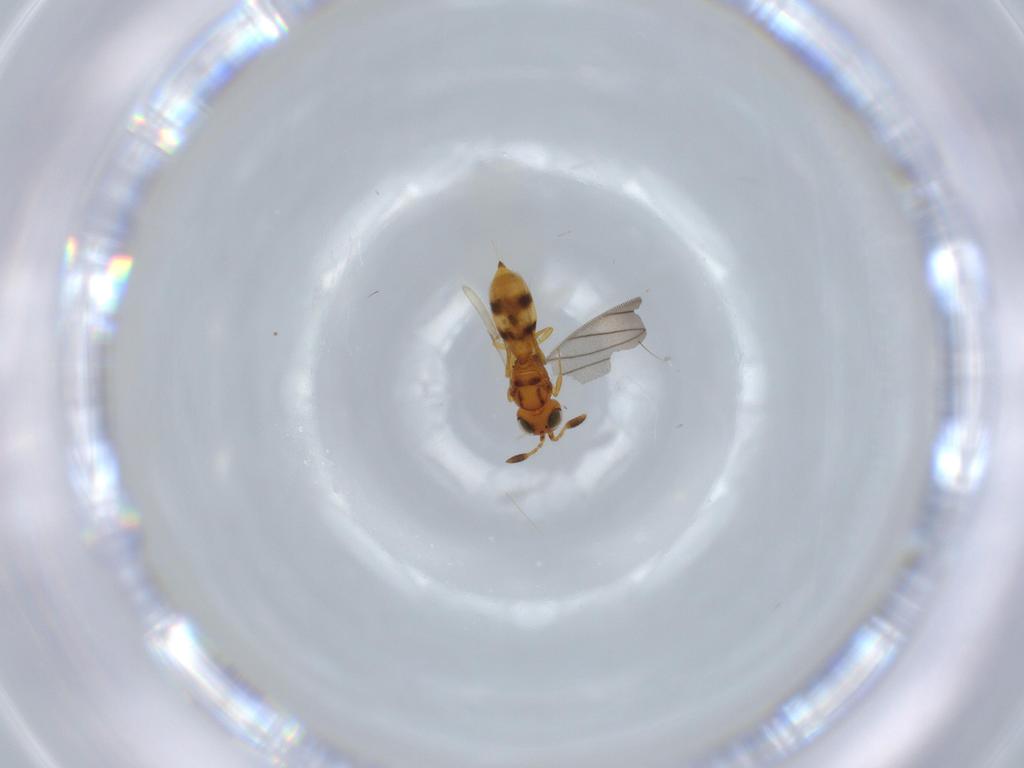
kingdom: Animalia
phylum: Arthropoda
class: Insecta
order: Hymenoptera
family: Scelionidae
